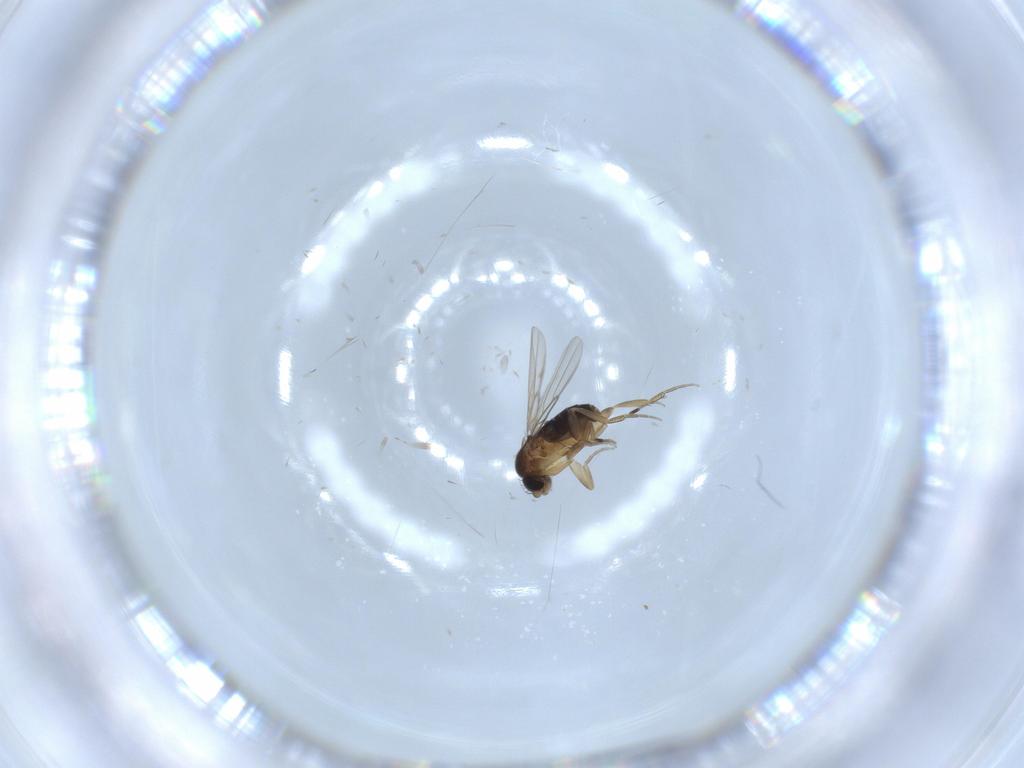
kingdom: Animalia
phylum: Arthropoda
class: Insecta
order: Diptera
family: Phoridae
